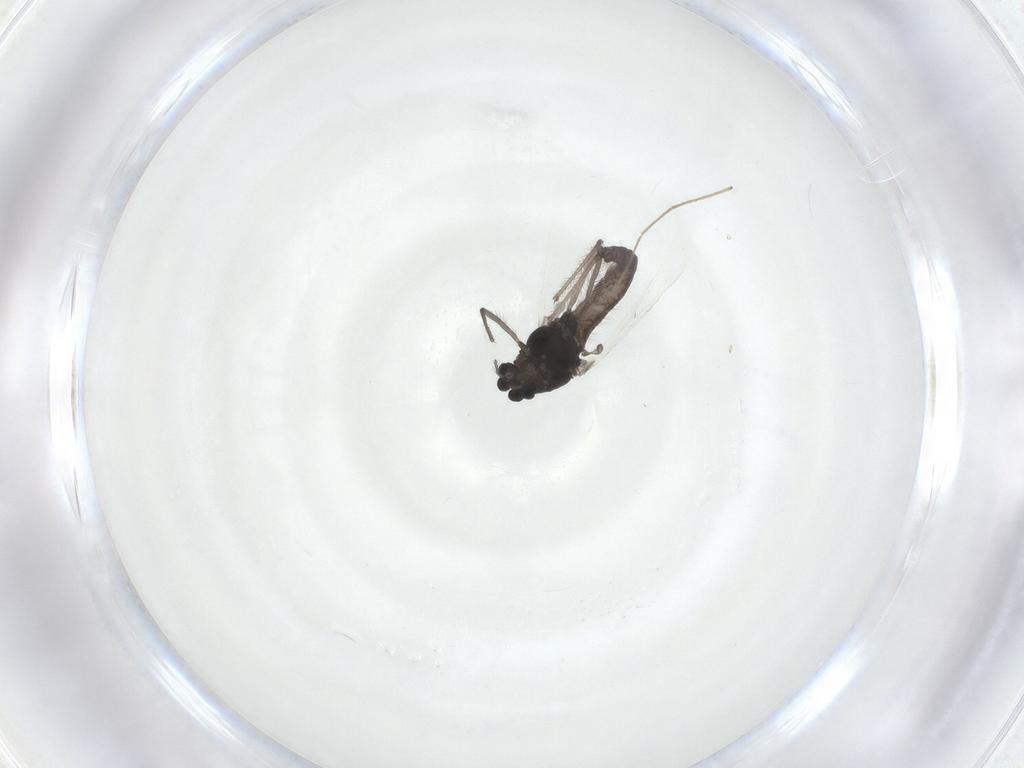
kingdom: Animalia
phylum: Arthropoda
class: Insecta
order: Diptera
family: Chironomidae
